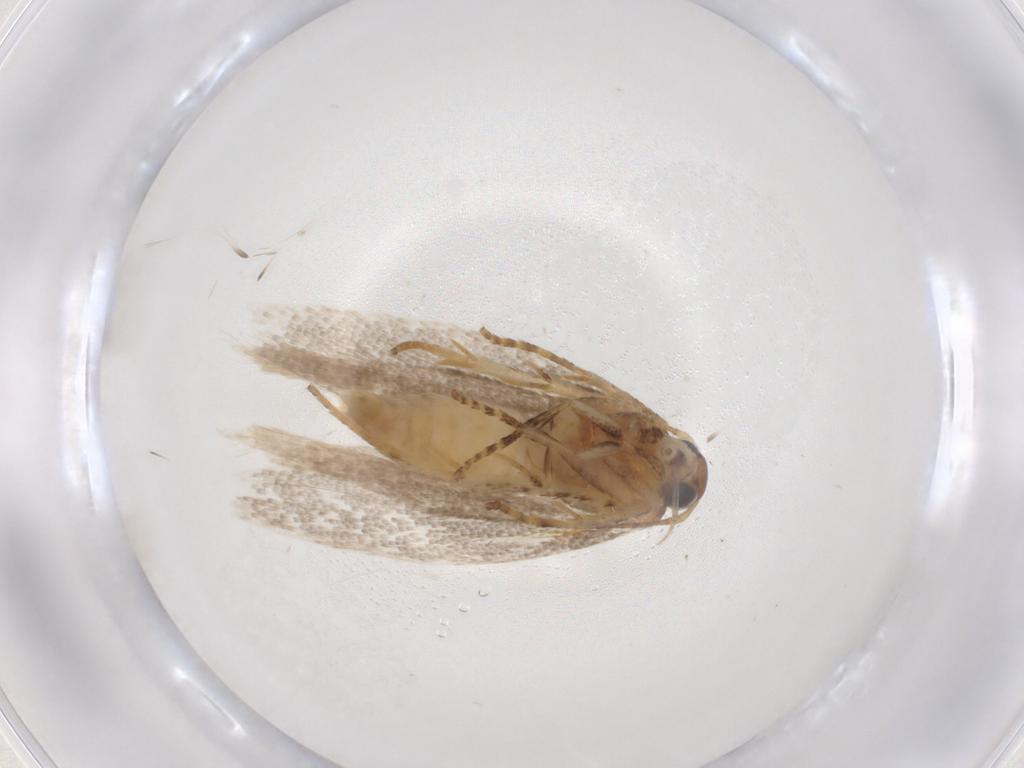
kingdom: Animalia
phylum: Arthropoda
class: Insecta
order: Lepidoptera
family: Gelechiidae
